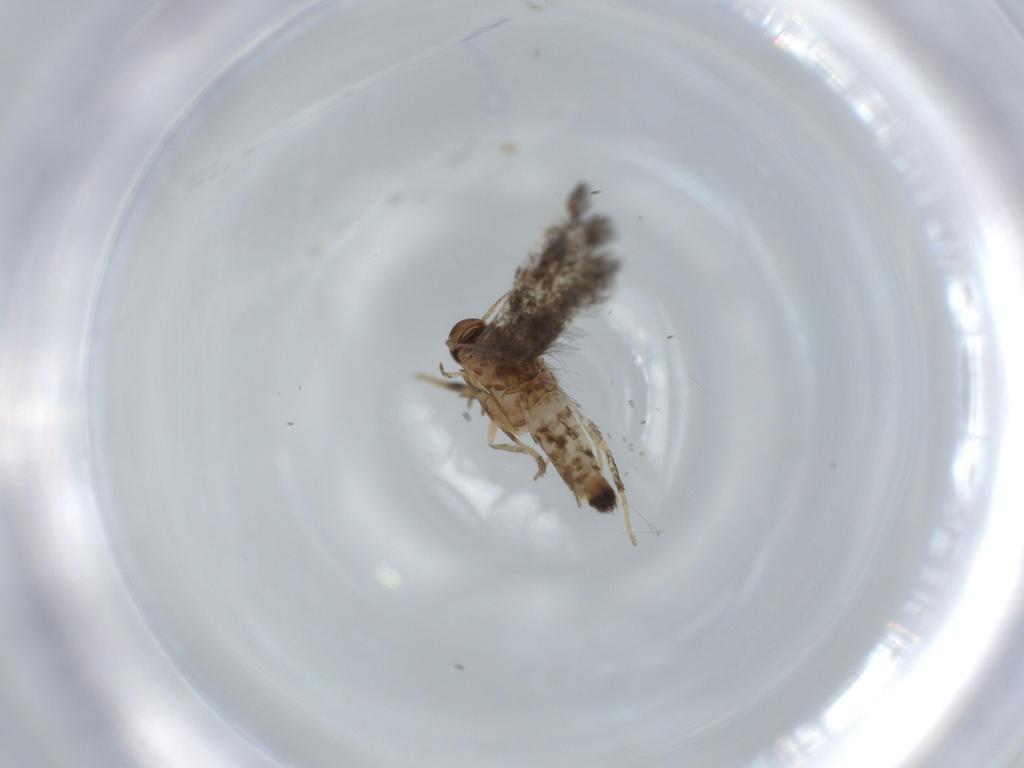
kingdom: Animalia
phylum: Arthropoda
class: Insecta
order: Lepidoptera
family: Cosmopterigidae
